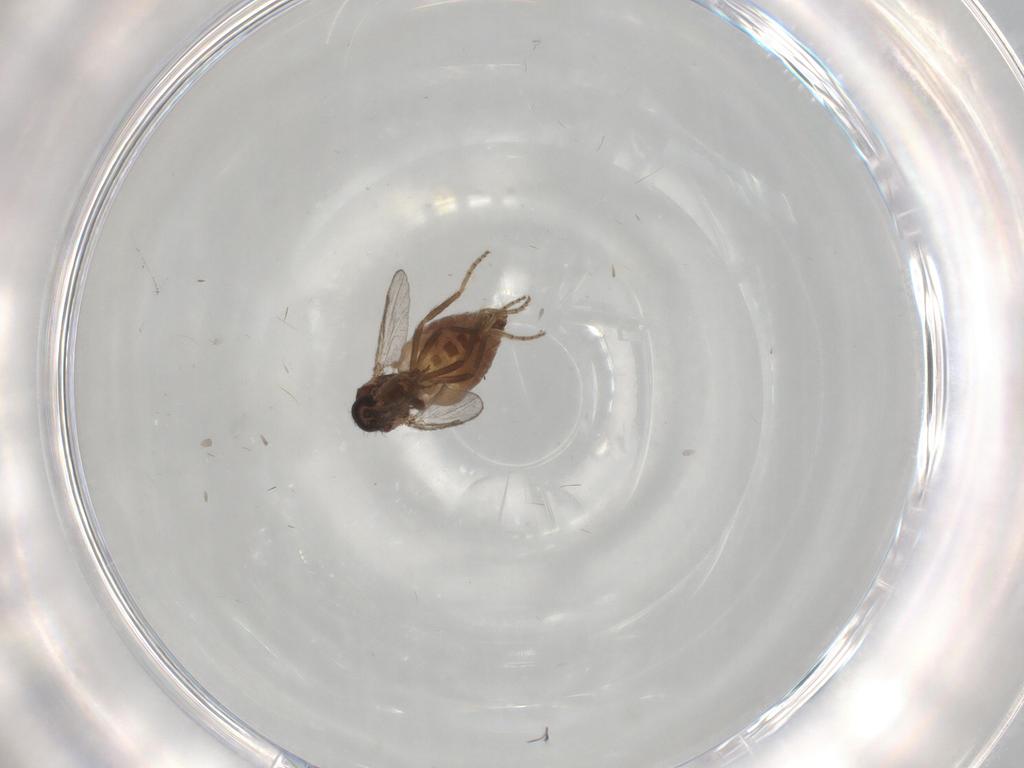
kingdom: Animalia
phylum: Arthropoda
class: Insecta
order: Diptera
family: Ceratopogonidae
